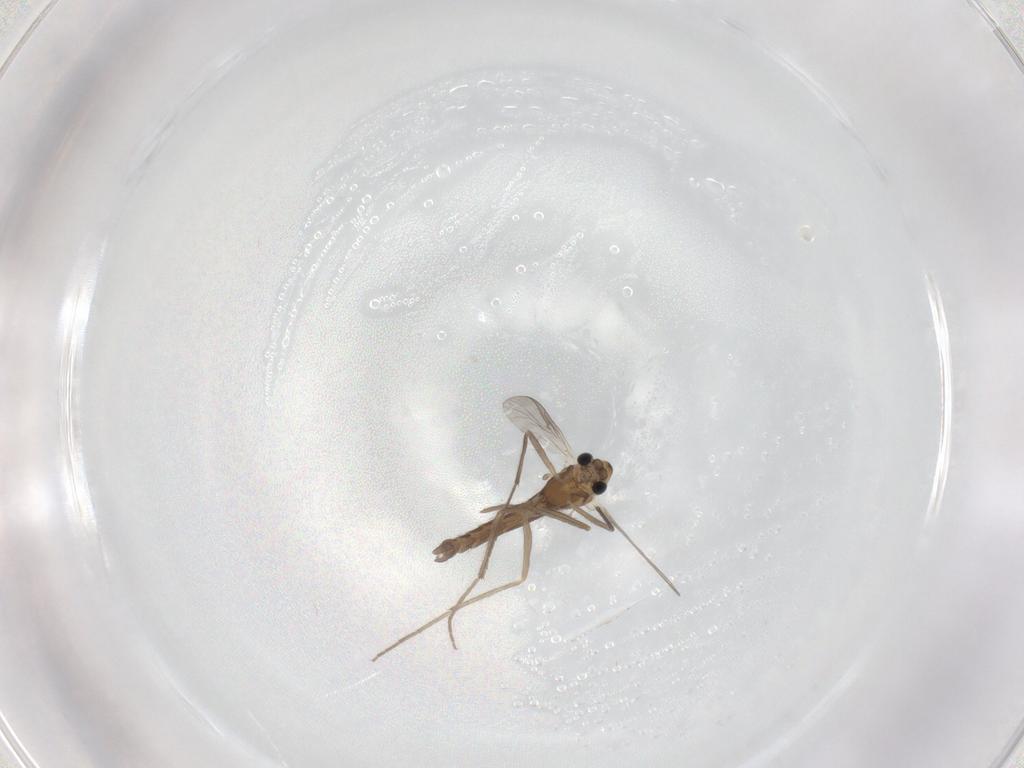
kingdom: Animalia
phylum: Arthropoda
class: Insecta
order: Diptera
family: Chironomidae
